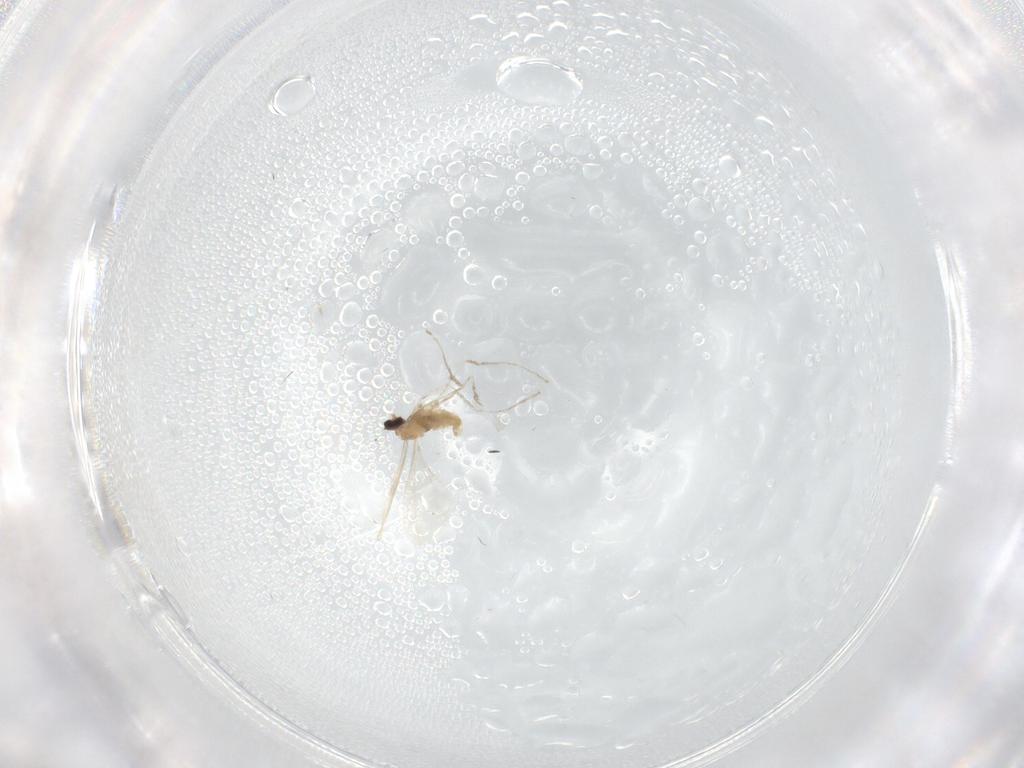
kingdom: Animalia
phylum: Arthropoda
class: Insecta
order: Diptera
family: Cecidomyiidae
